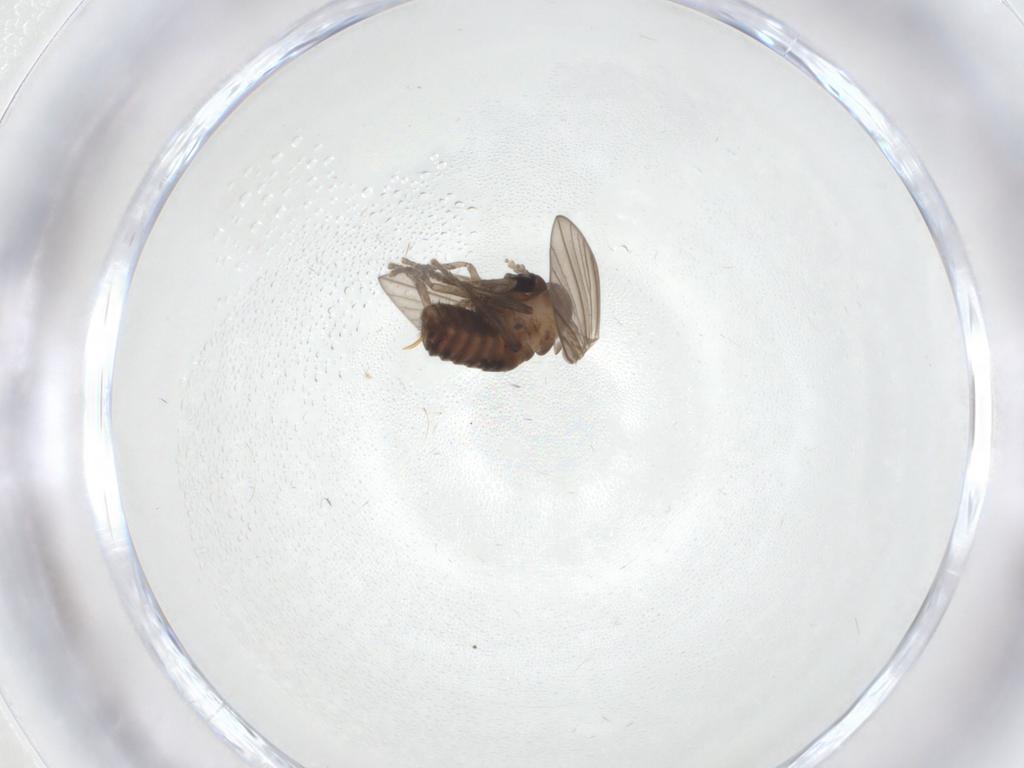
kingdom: Animalia
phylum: Arthropoda
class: Insecta
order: Diptera
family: Psychodidae
